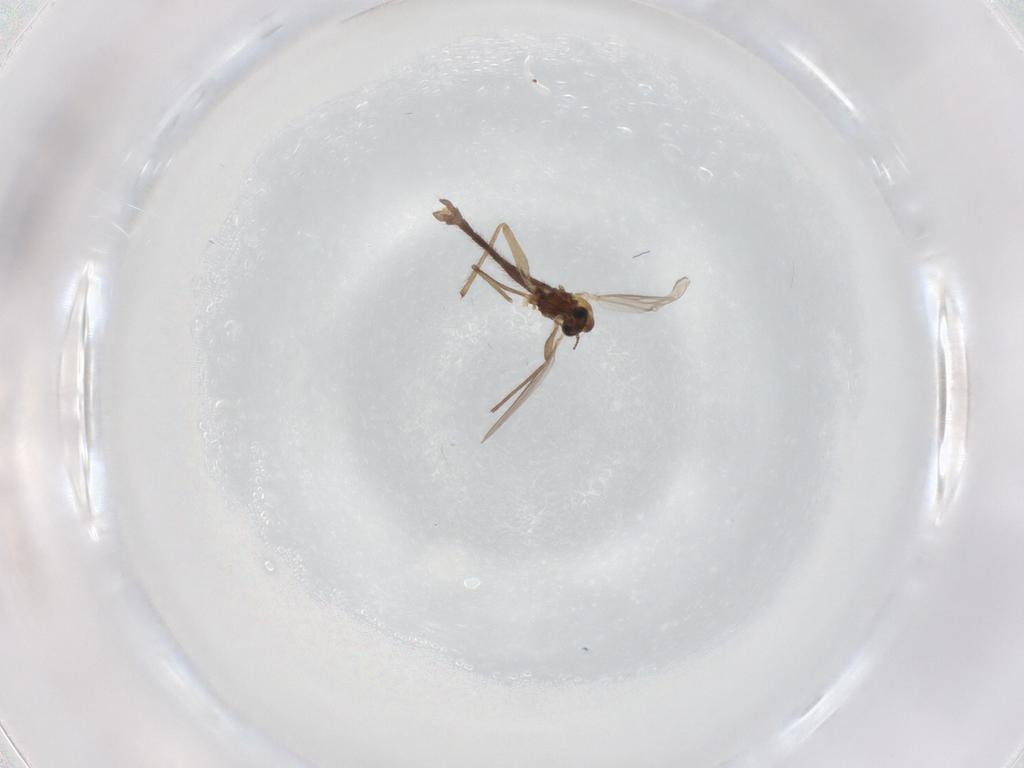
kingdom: Animalia
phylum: Arthropoda
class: Insecta
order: Diptera
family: Chironomidae
